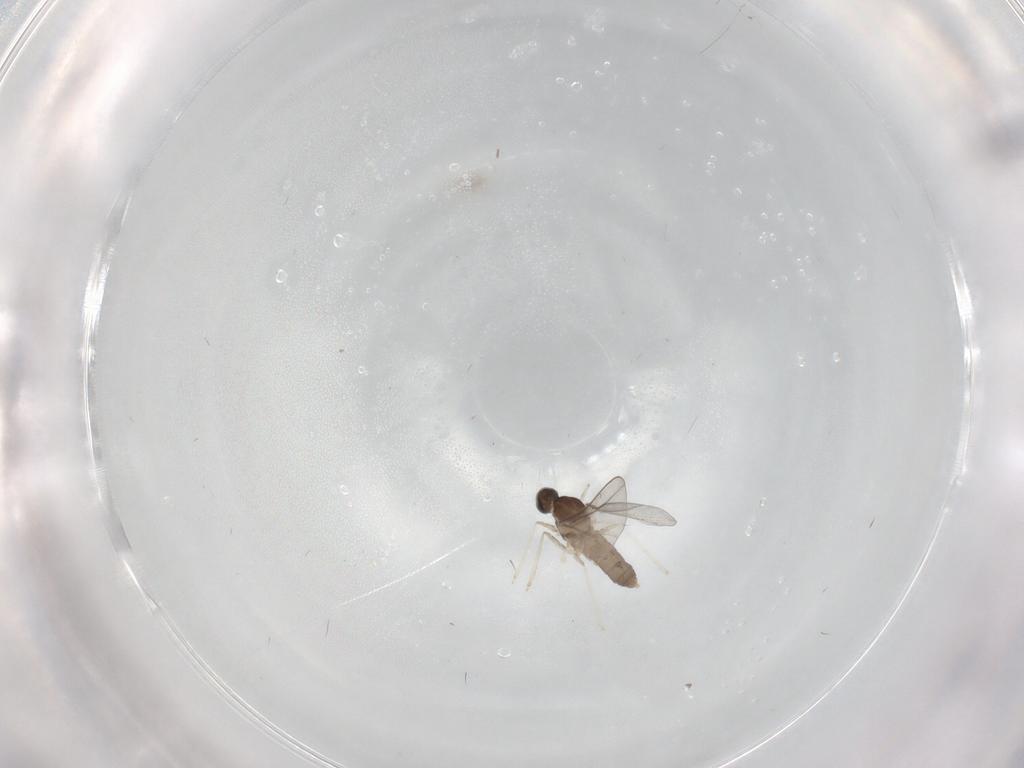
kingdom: Animalia
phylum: Arthropoda
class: Insecta
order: Diptera
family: Cecidomyiidae
